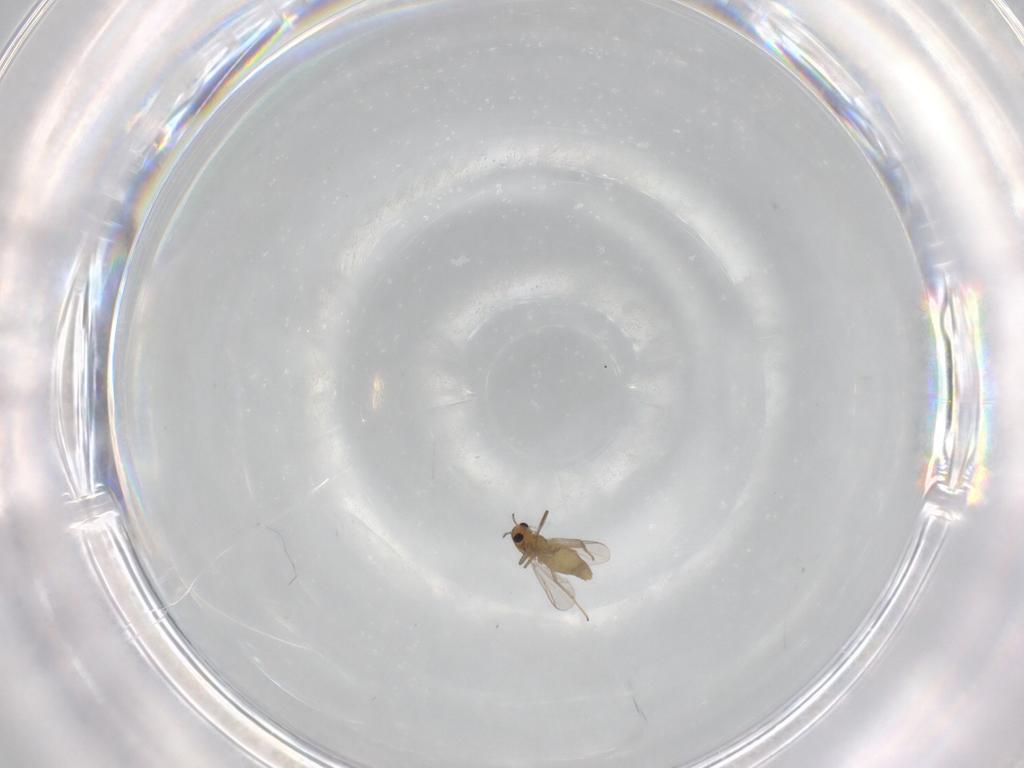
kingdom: Animalia
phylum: Arthropoda
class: Insecta
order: Diptera
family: Chironomidae
